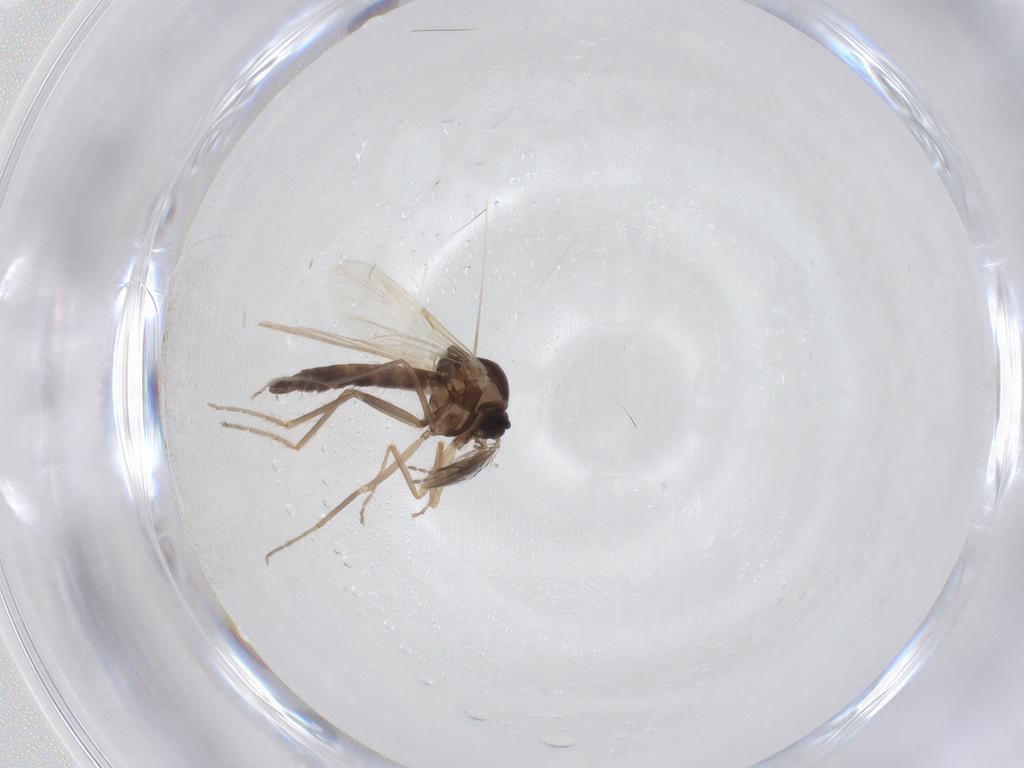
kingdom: Animalia
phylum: Arthropoda
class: Insecta
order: Diptera
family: Ceratopogonidae
